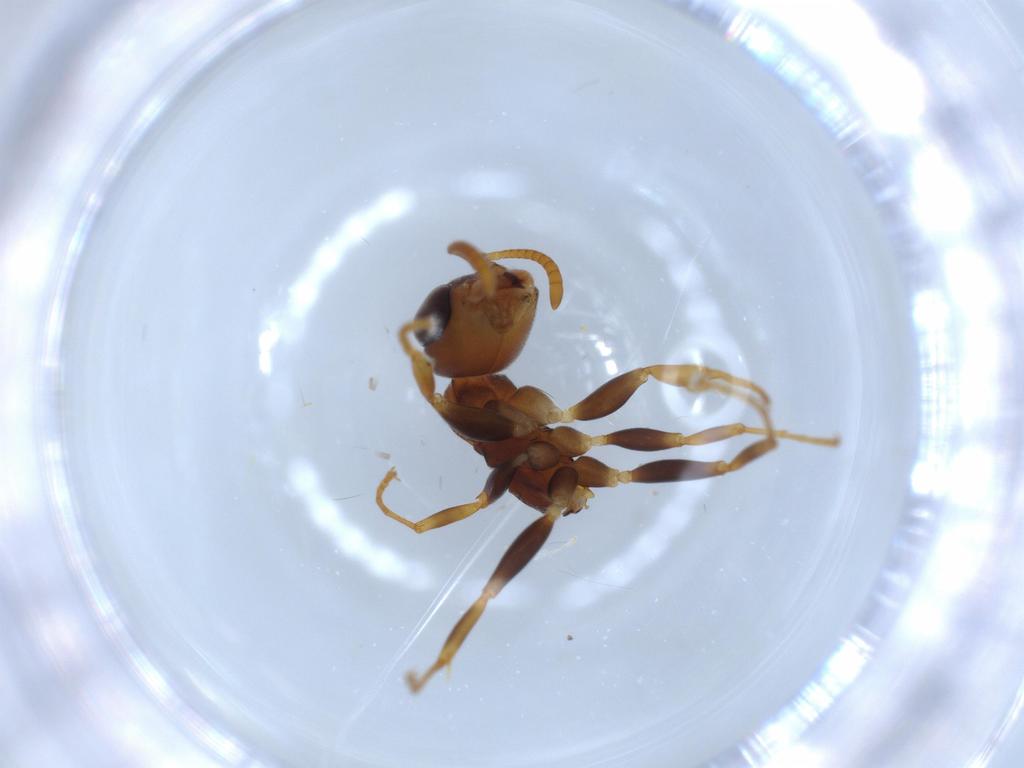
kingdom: Animalia
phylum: Arthropoda
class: Insecta
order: Hymenoptera
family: Formicidae
